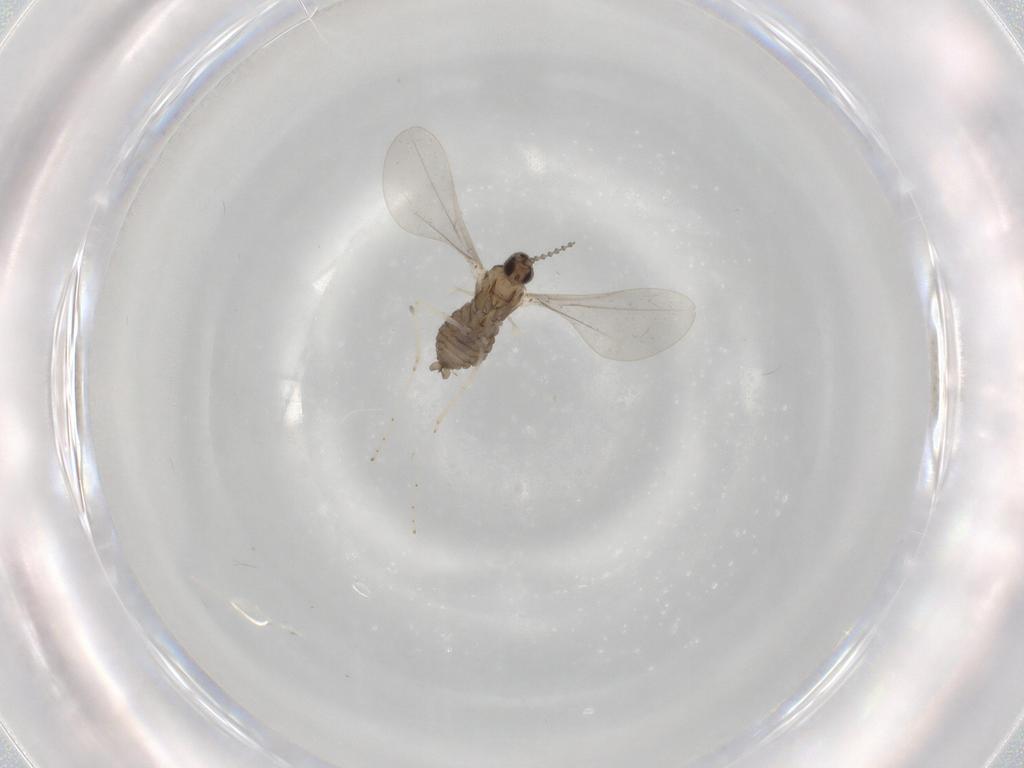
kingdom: Animalia
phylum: Arthropoda
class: Insecta
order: Diptera
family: Cecidomyiidae
